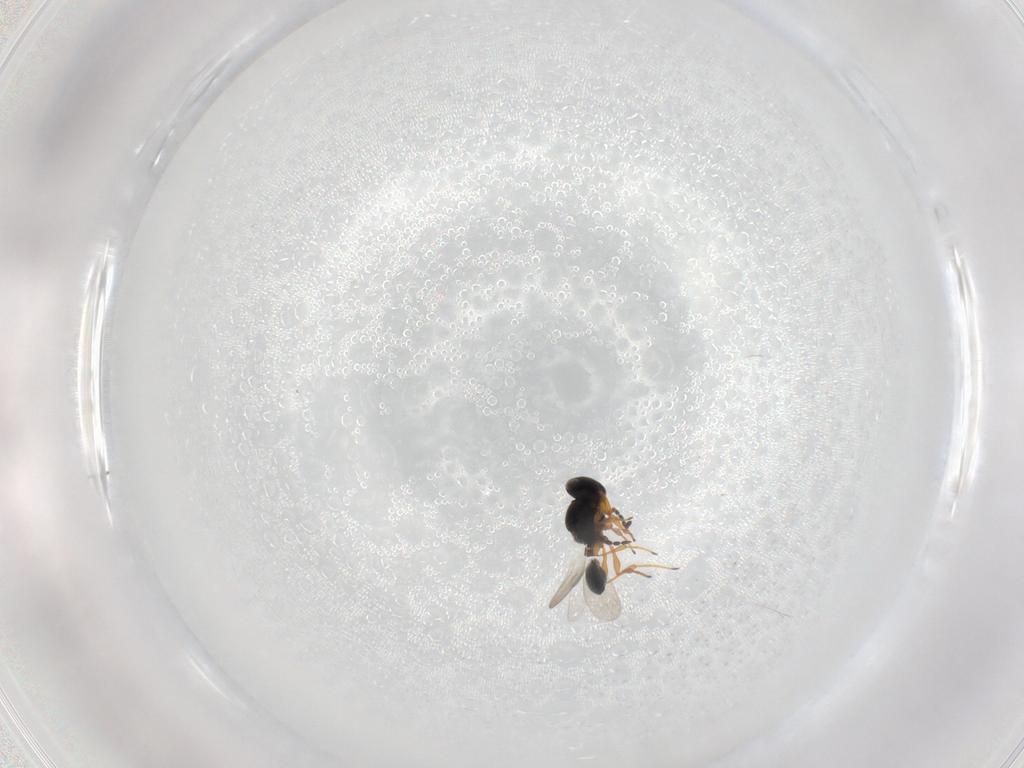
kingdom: Animalia
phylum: Arthropoda
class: Insecta
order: Hymenoptera
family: Platygastridae
